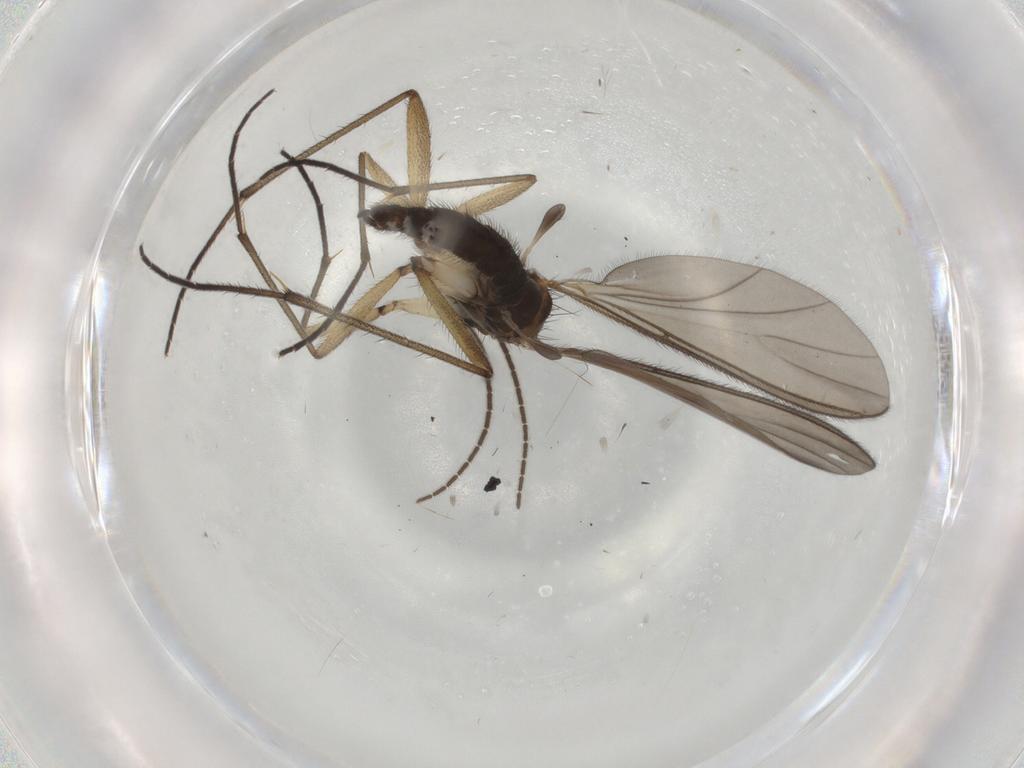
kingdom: Animalia
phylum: Arthropoda
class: Insecta
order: Diptera
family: Sciaridae
